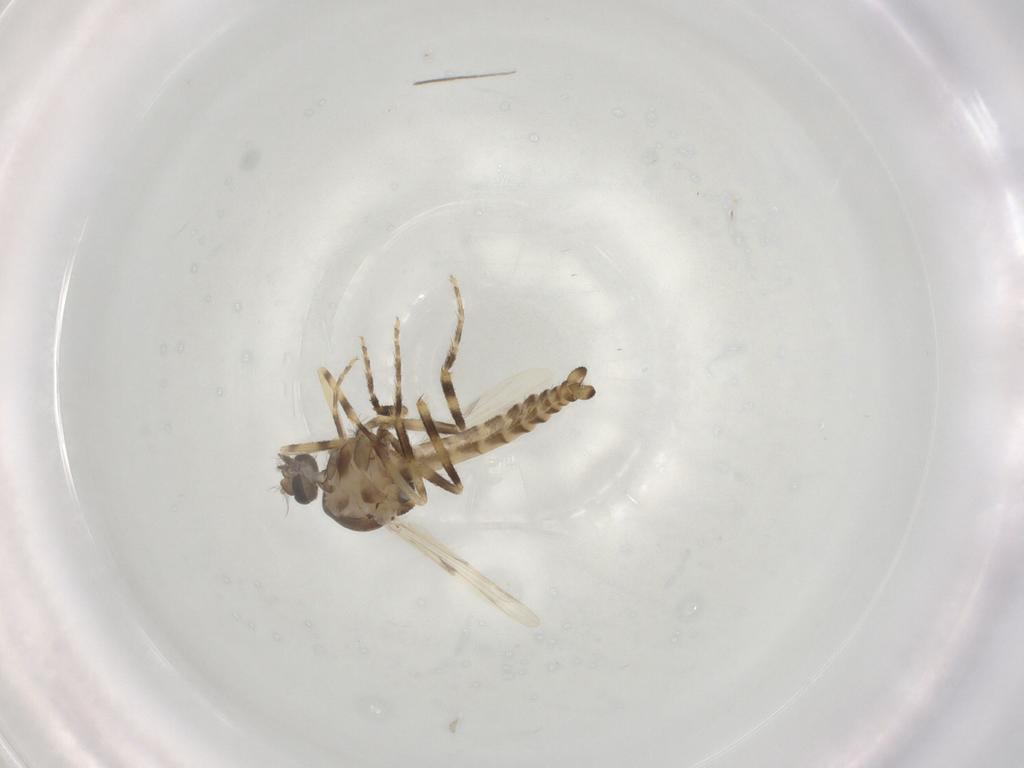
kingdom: Animalia
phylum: Arthropoda
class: Insecta
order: Diptera
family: Ceratopogonidae
